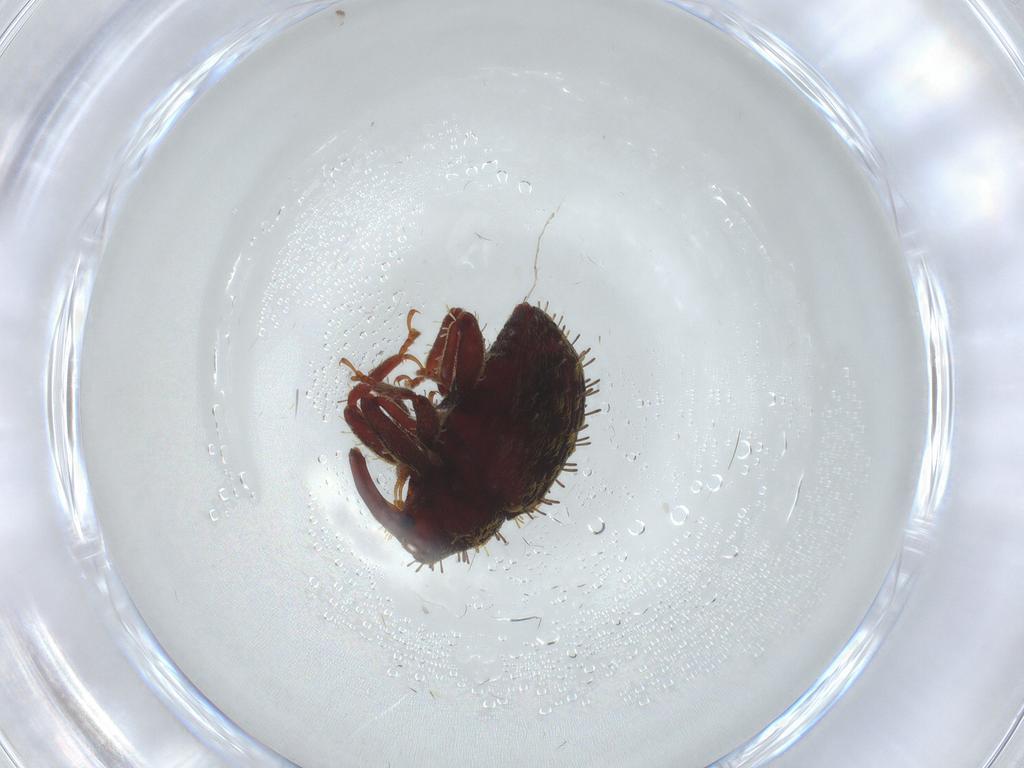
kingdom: Animalia
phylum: Arthropoda
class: Insecta
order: Coleoptera
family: Curculionidae
